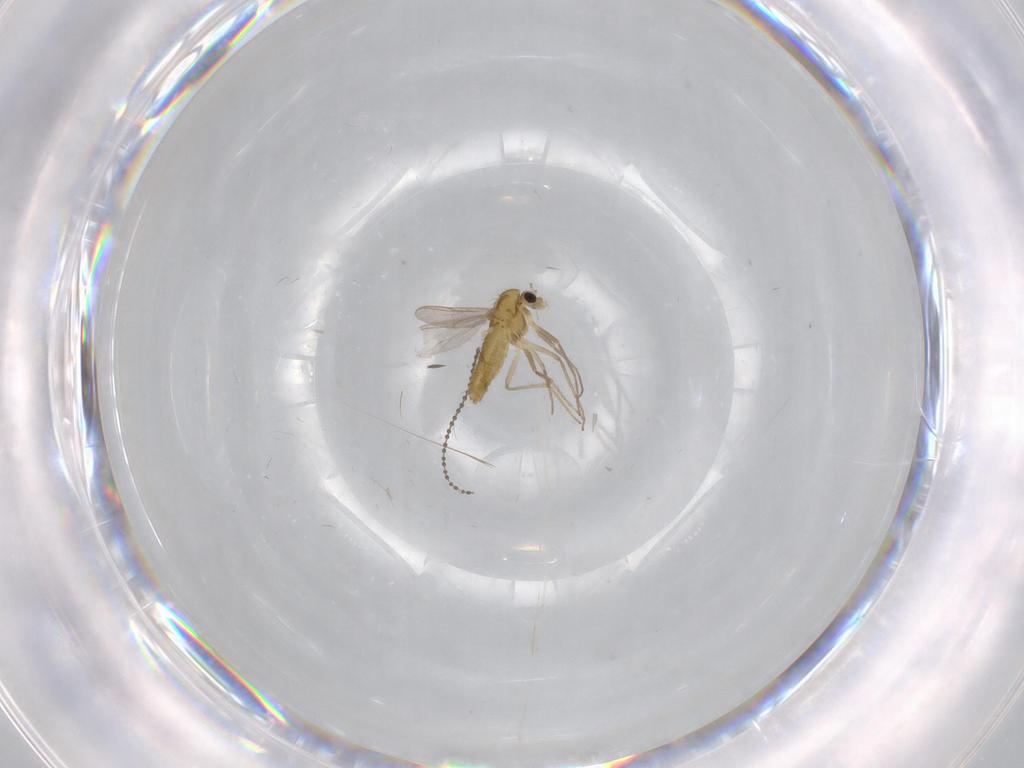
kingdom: Animalia
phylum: Arthropoda
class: Insecta
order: Diptera
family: Chironomidae
